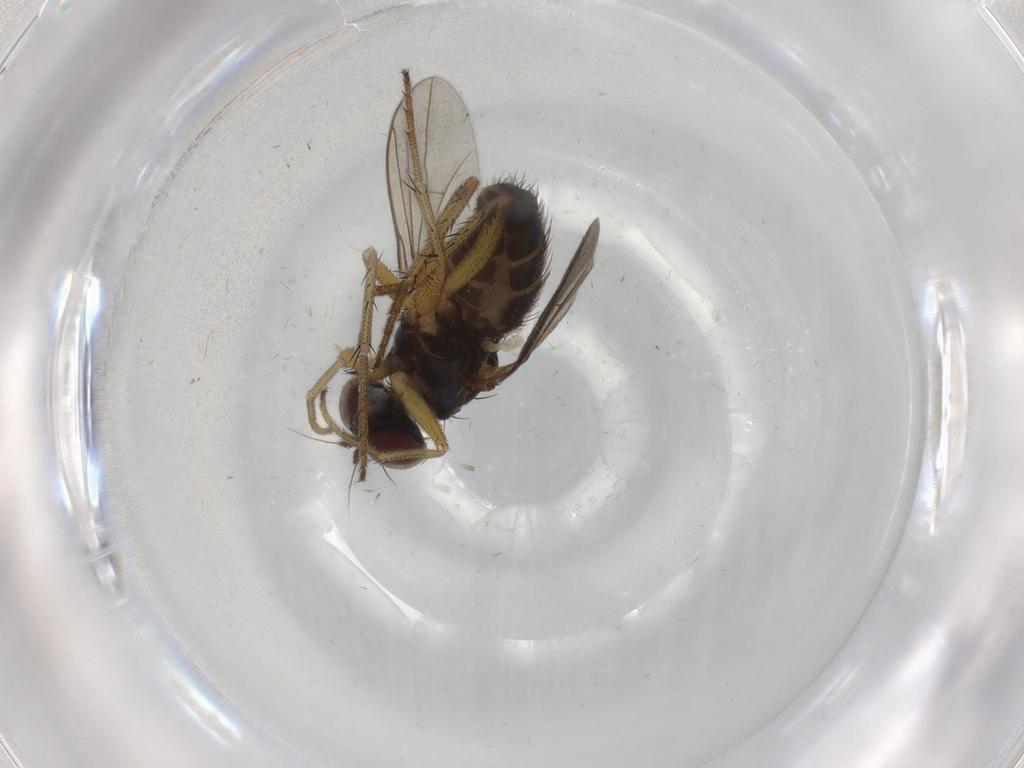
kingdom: Animalia
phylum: Arthropoda
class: Insecta
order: Diptera
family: Dolichopodidae
